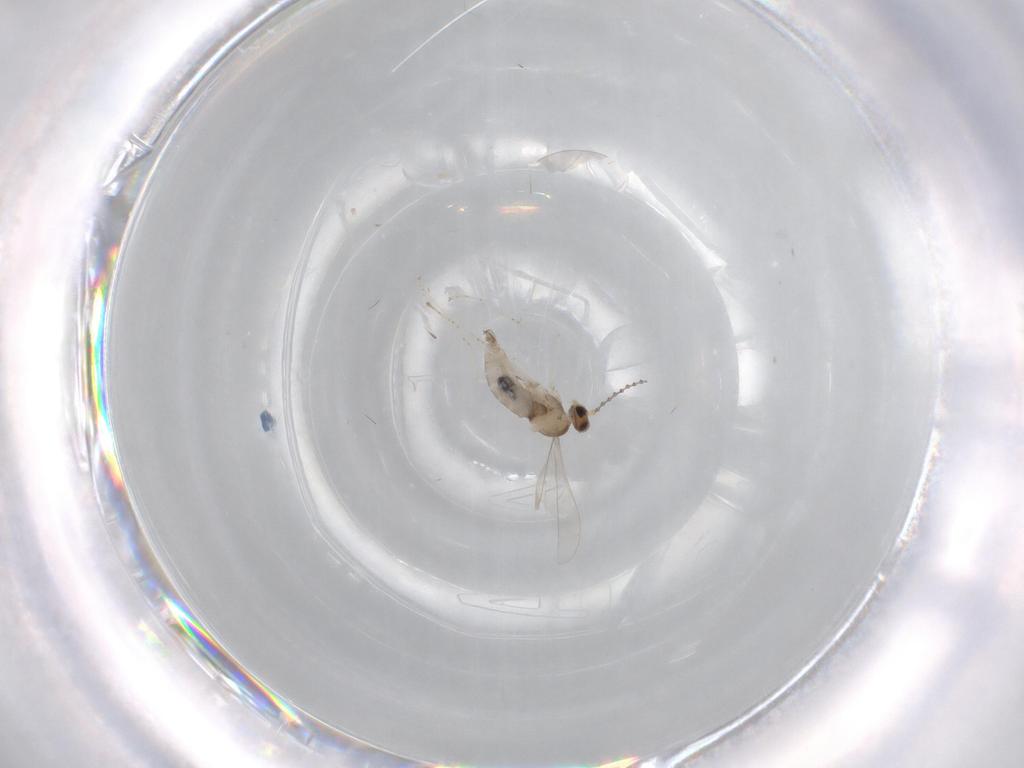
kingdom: Animalia
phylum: Arthropoda
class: Insecta
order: Diptera
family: Cecidomyiidae
